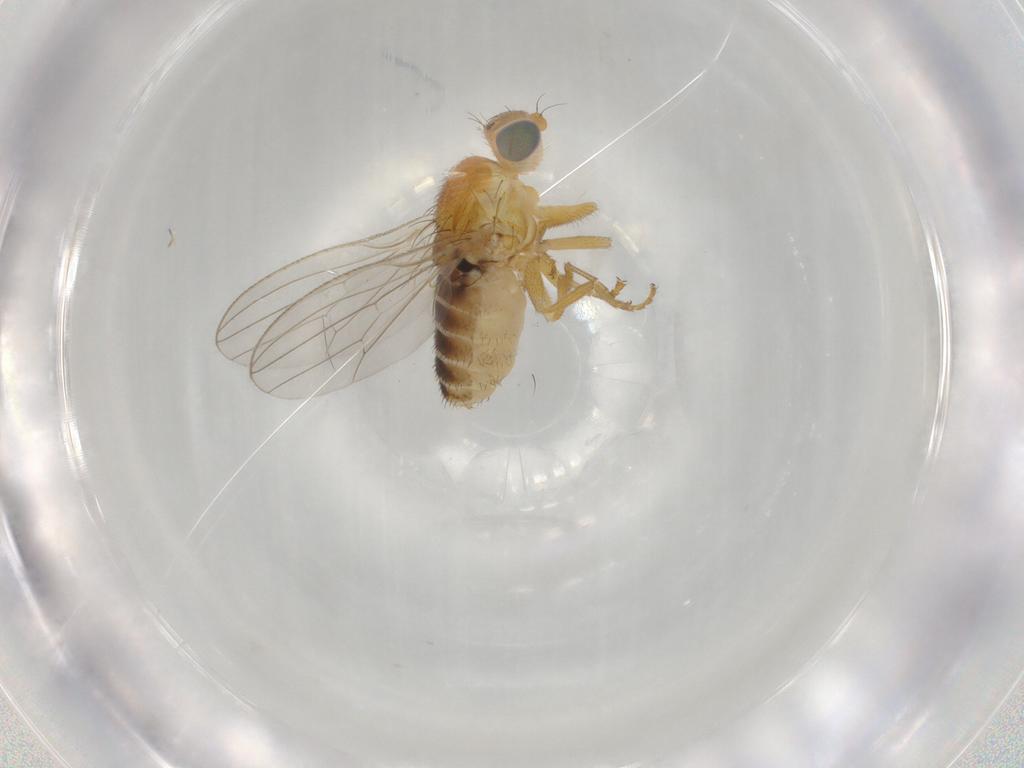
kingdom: Animalia
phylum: Arthropoda
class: Insecta
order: Diptera
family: Chyromyidae
